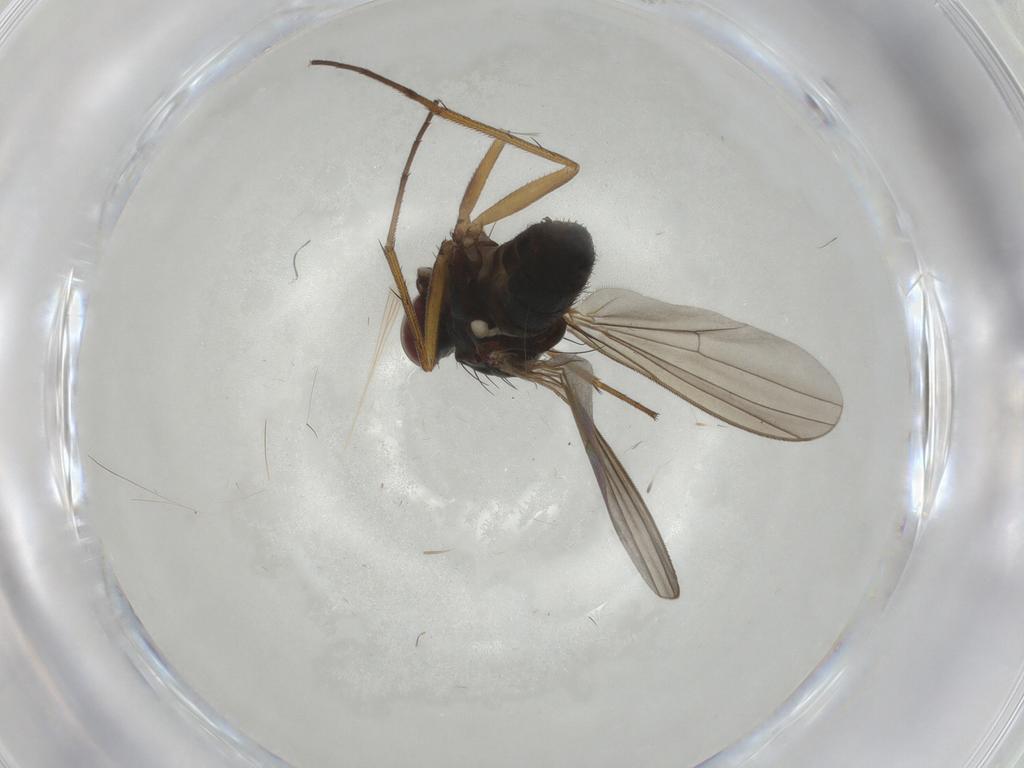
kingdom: Animalia
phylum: Arthropoda
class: Insecta
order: Diptera
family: Dolichopodidae
